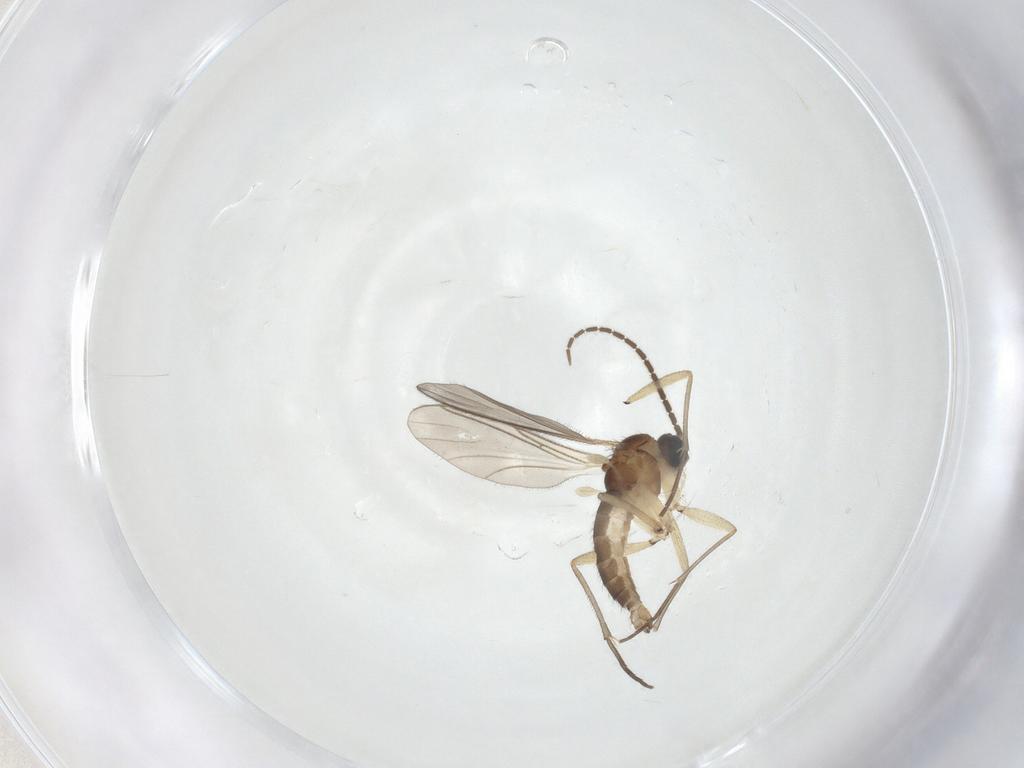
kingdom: Animalia
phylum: Arthropoda
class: Insecta
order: Diptera
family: Sciaridae
